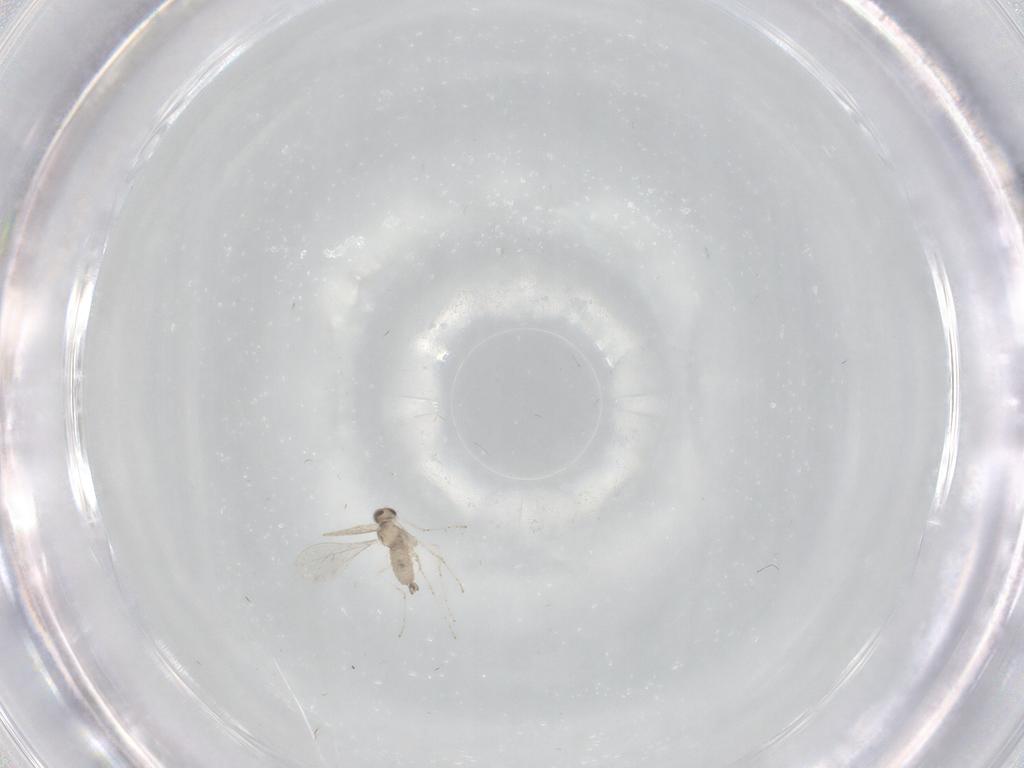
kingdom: Animalia
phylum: Arthropoda
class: Insecta
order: Diptera
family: Cecidomyiidae
